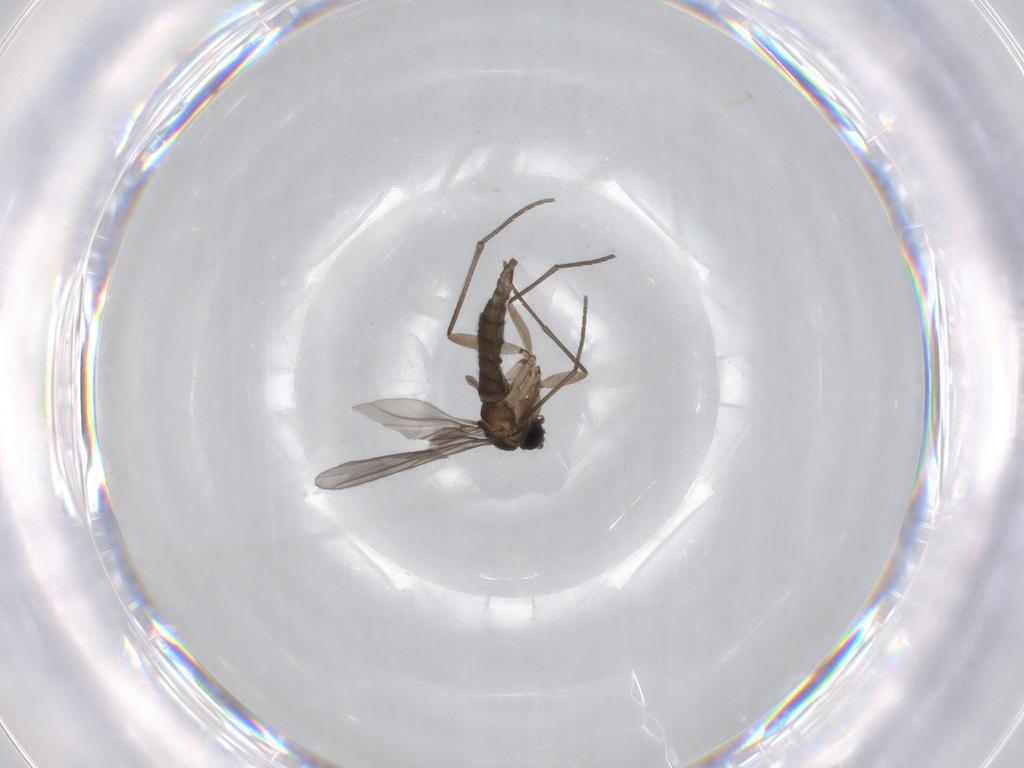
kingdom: Animalia
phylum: Arthropoda
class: Insecta
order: Diptera
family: Sciaridae
